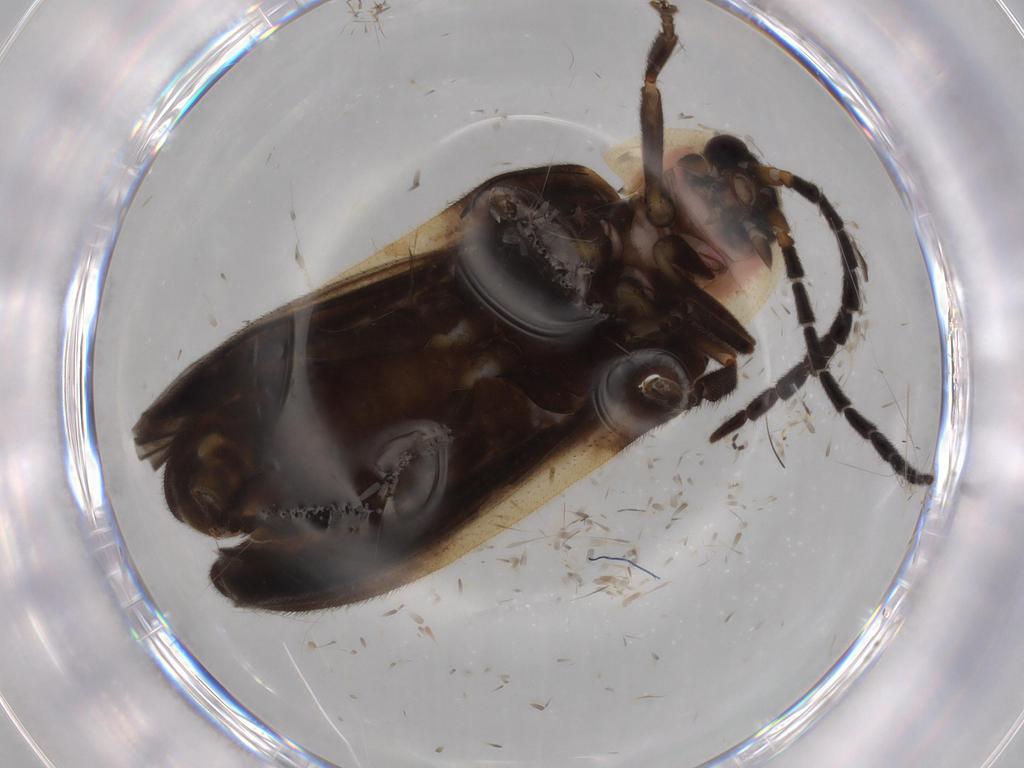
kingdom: Animalia
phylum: Arthropoda
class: Insecta
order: Coleoptera
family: Lampyridae
